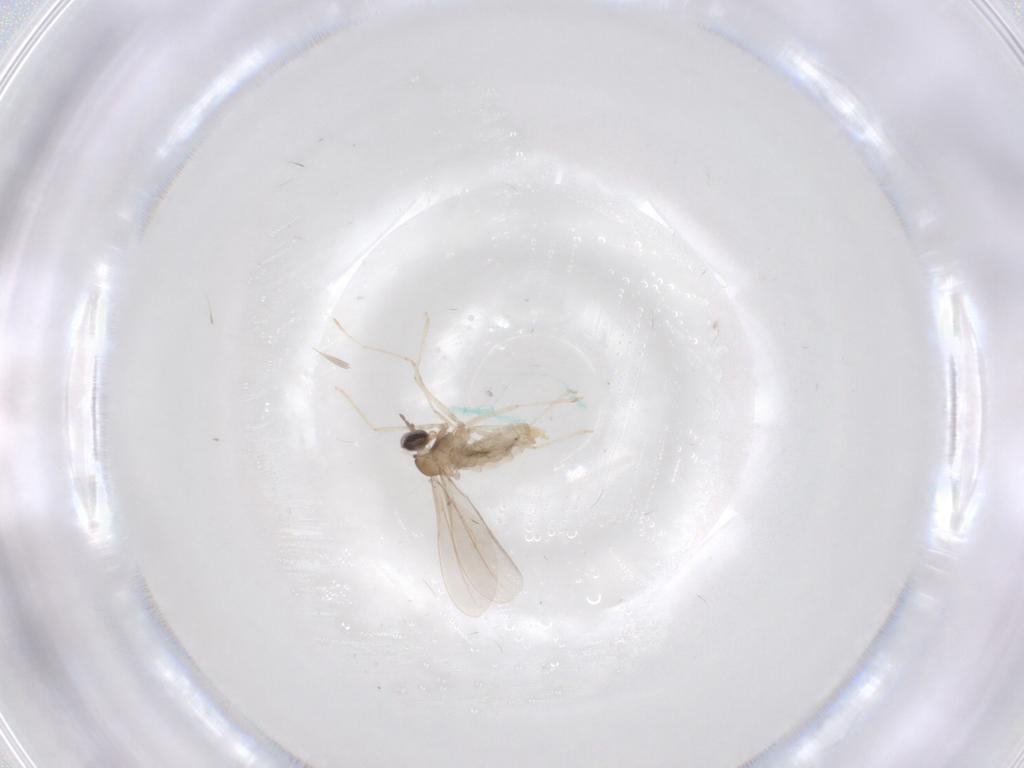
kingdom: Animalia
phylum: Arthropoda
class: Insecta
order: Diptera
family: Cecidomyiidae
